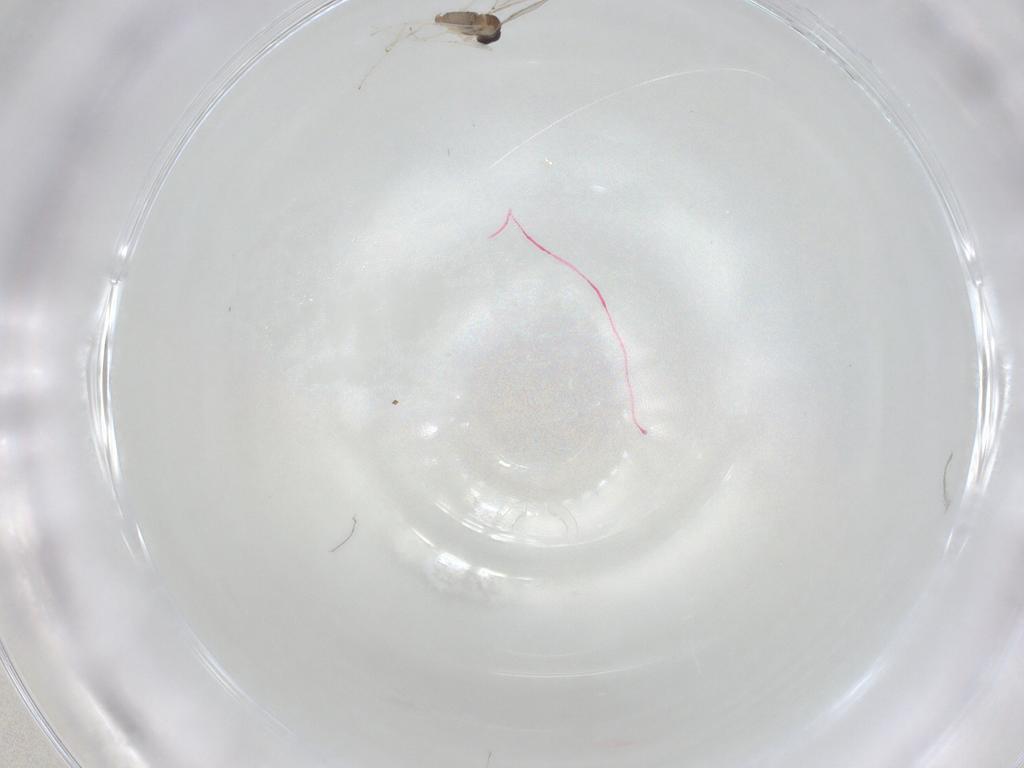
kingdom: Animalia
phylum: Arthropoda
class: Insecta
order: Diptera
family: Cecidomyiidae
